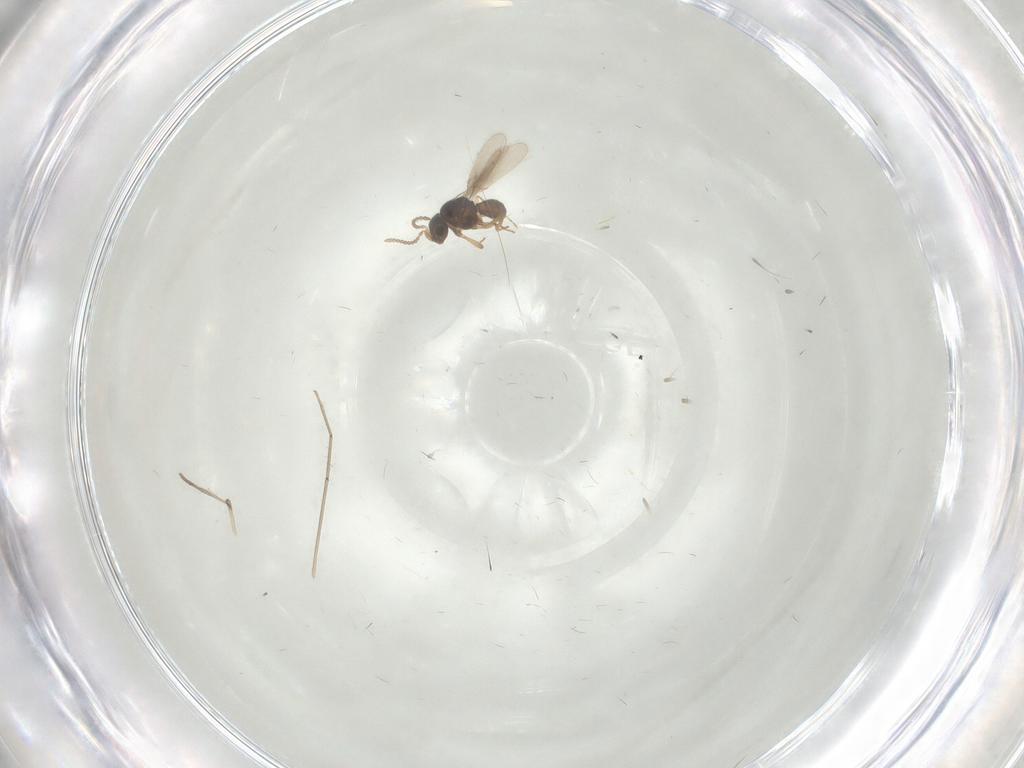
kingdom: Animalia
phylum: Arthropoda
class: Insecta
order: Hymenoptera
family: Scelionidae
